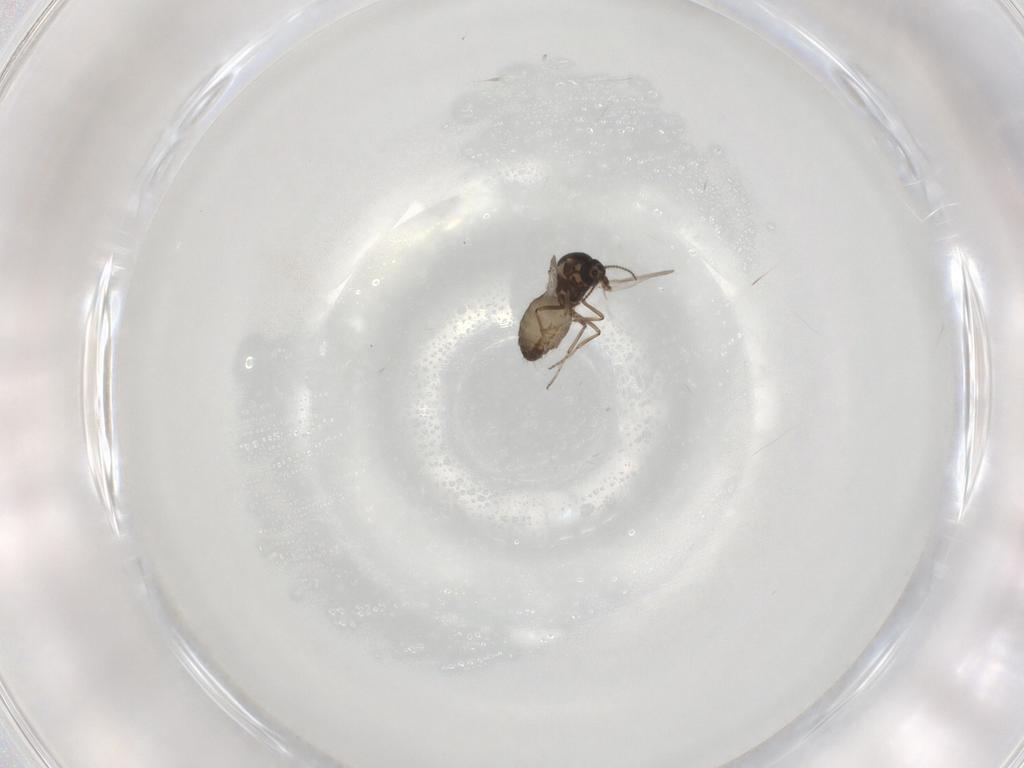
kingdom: Animalia
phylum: Arthropoda
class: Insecta
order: Diptera
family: Ceratopogonidae
